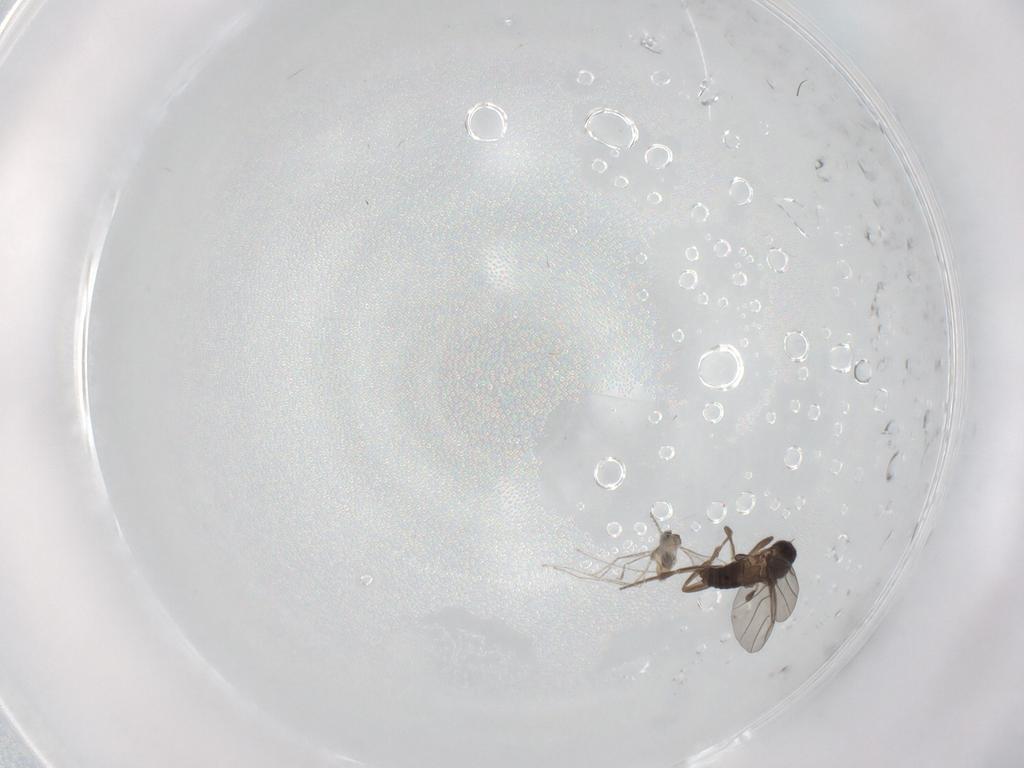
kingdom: Animalia
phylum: Arthropoda
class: Insecta
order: Diptera
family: Cecidomyiidae
